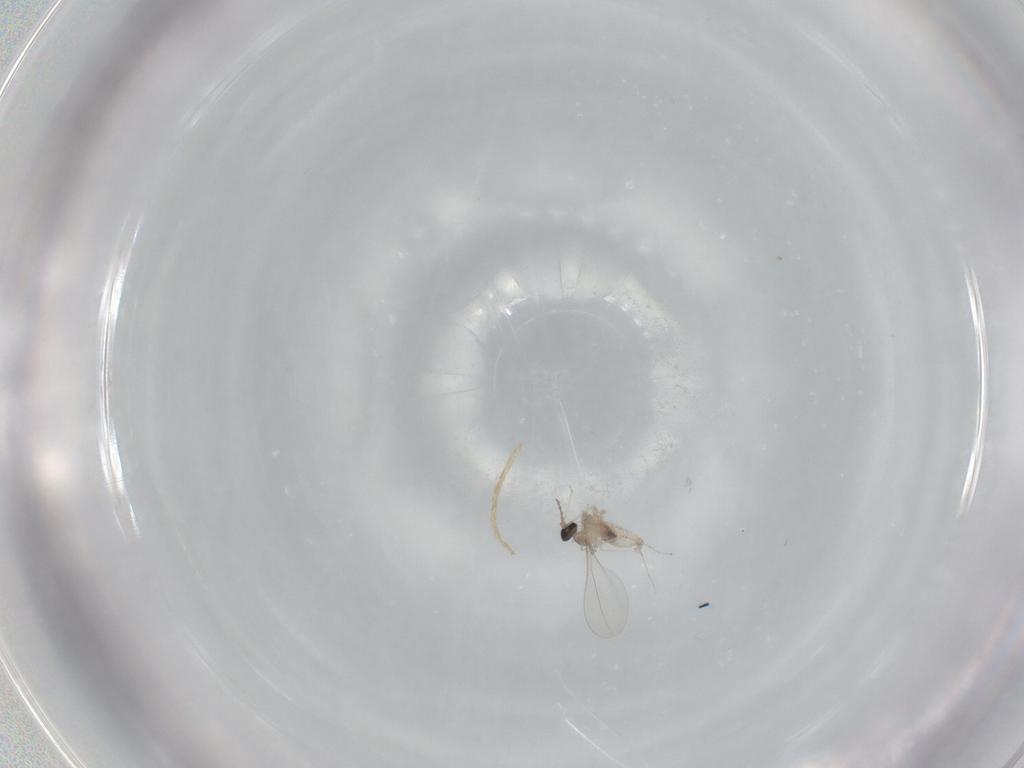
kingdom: Animalia
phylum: Arthropoda
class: Insecta
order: Diptera
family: Cecidomyiidae
